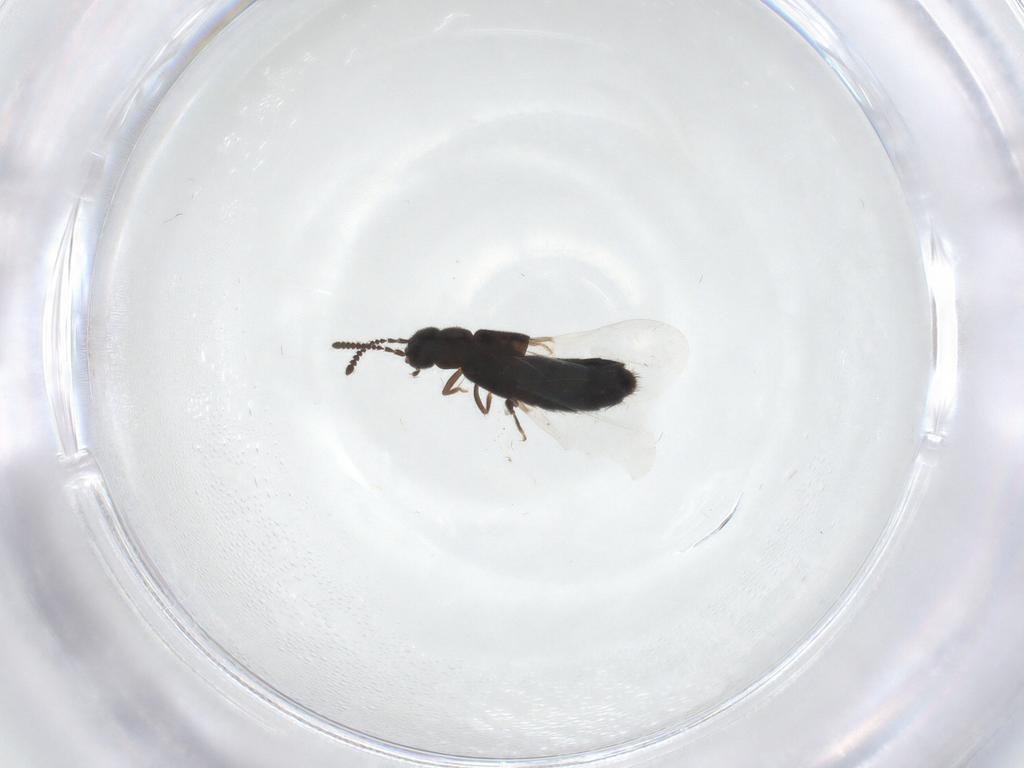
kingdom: Animalia
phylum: Arthropoda
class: Insecta
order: Coleoptera
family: Staphylinidae
